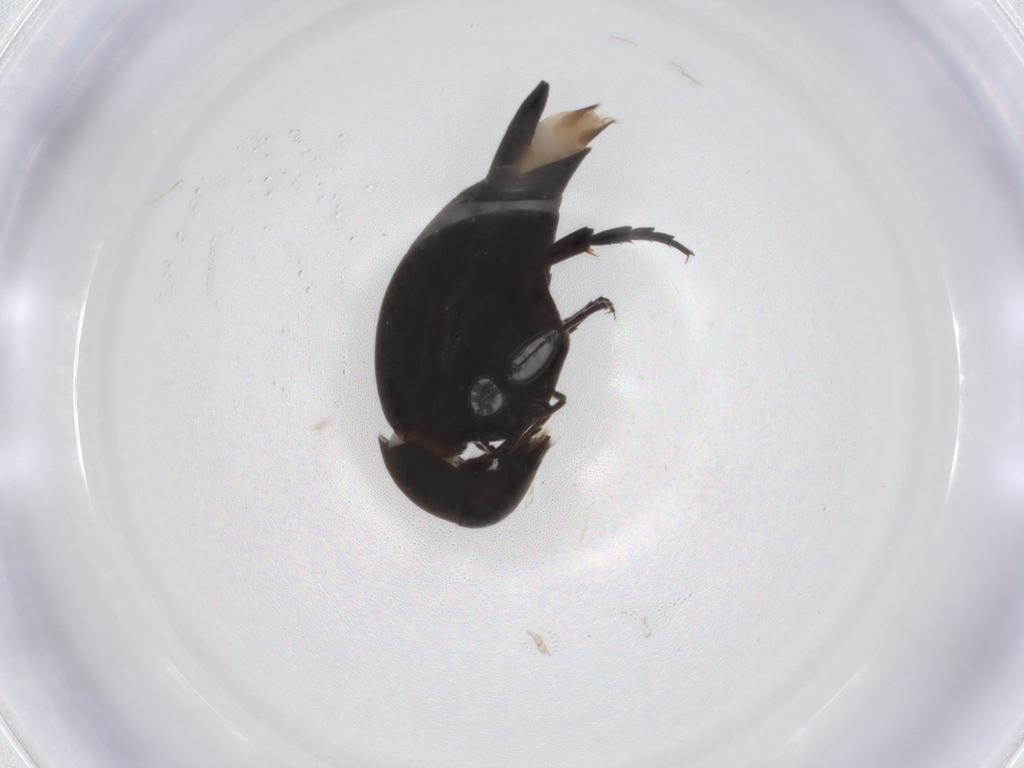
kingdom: Animalia
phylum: Arthropoda
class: Insecta
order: Coleoptera
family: Mordellidae
